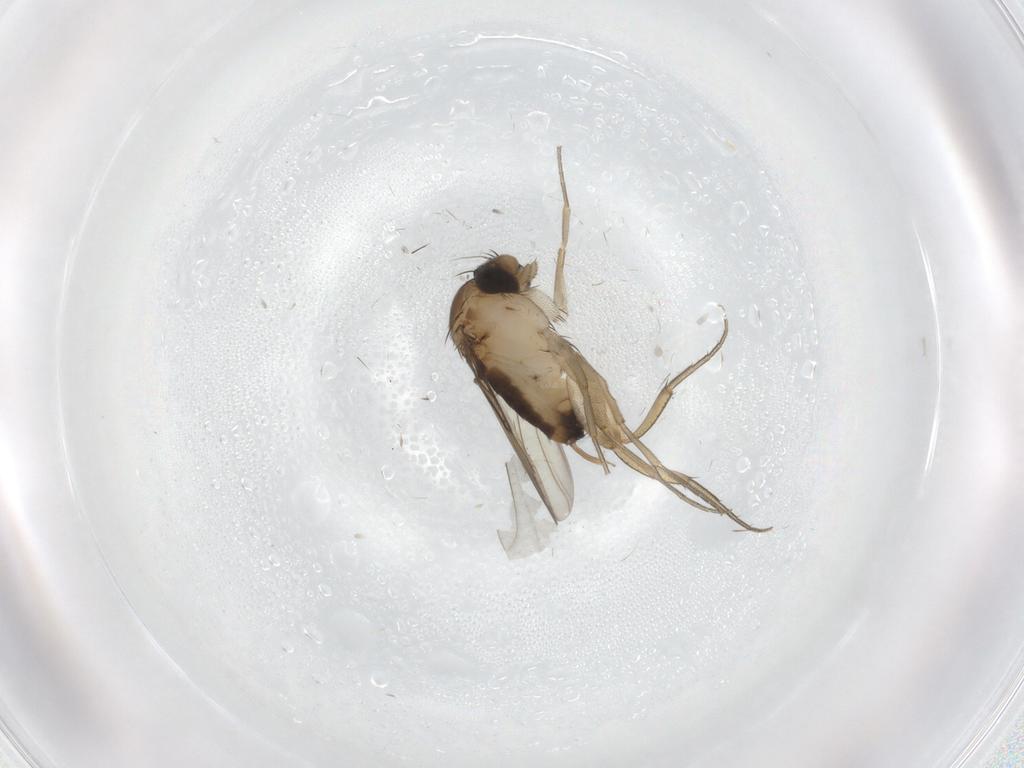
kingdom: Animalia
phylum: Arthropoda
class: Insecta
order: Diptera
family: Cecidomyiidae
